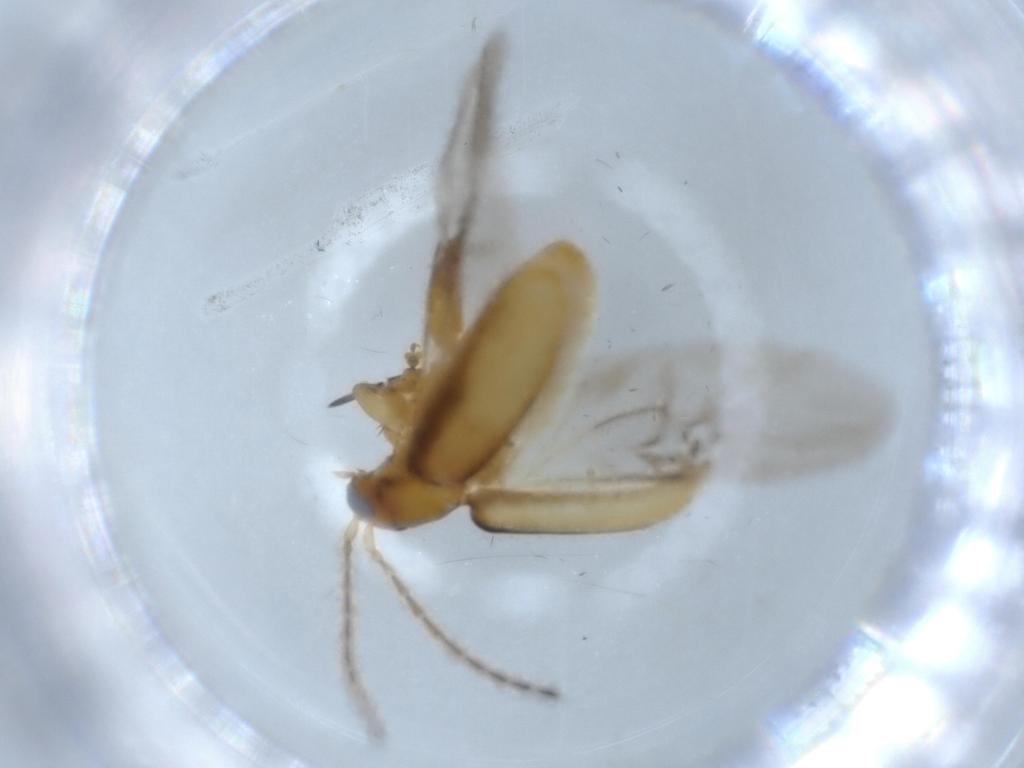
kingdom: Animalia
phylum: Arthropoda
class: Insecta
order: Coleoptera
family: Chrysomelidae
